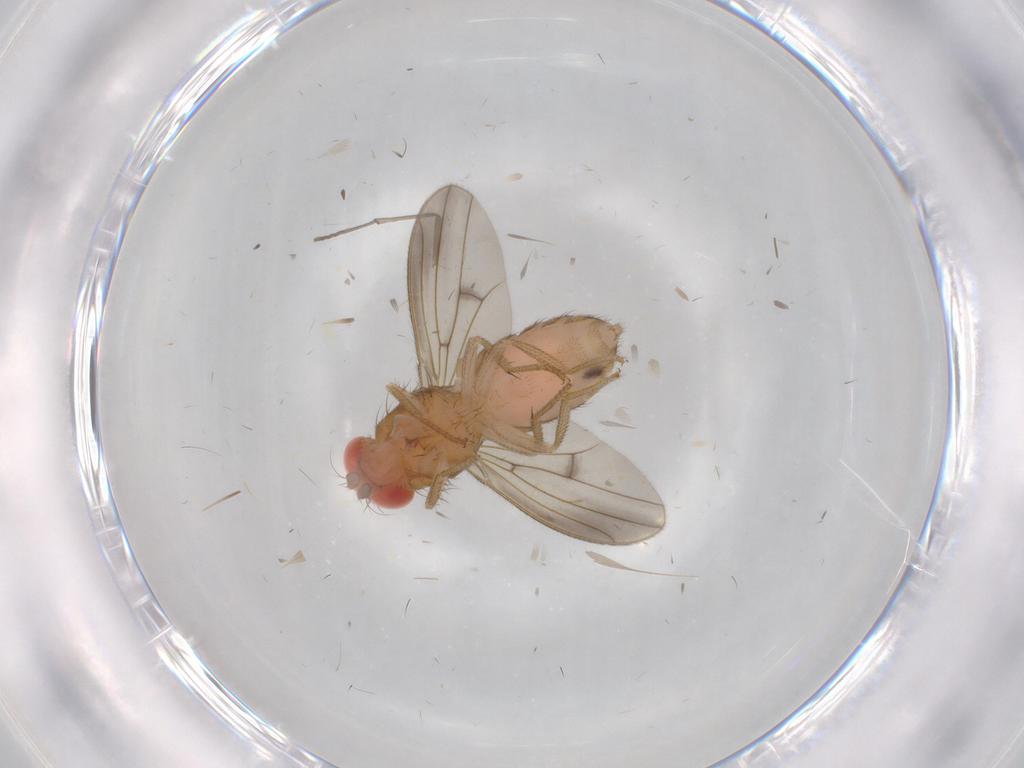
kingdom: Animalia
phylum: Arthropoda
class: Insecta
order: Diptera
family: Drosophilidae
